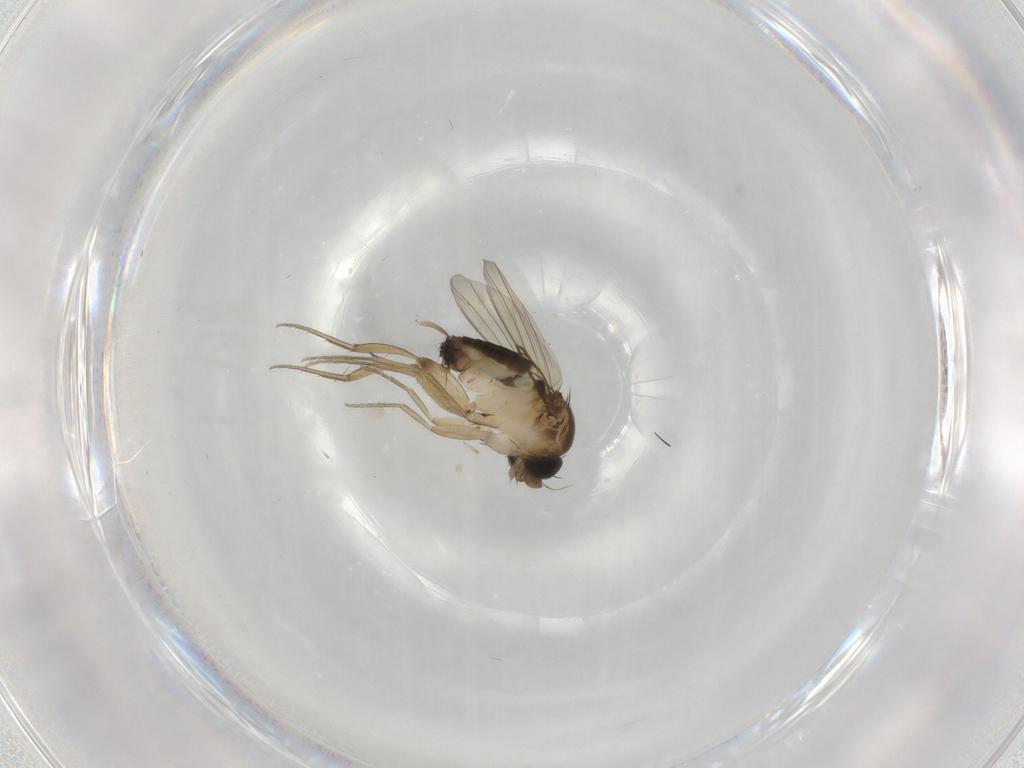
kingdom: Animalia
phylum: Arthropoda
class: Insecta
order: Diptera
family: Phoridae
